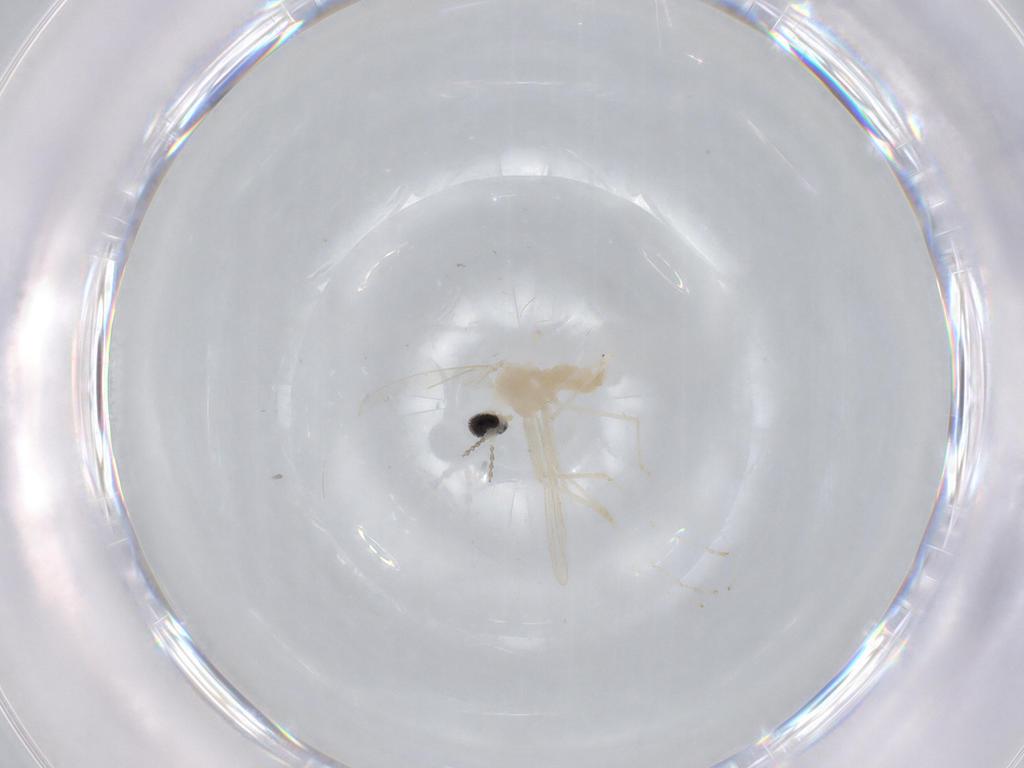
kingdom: Animalia
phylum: Arthropoda
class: Insecta
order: Diptera
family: Cecidomyiidae
